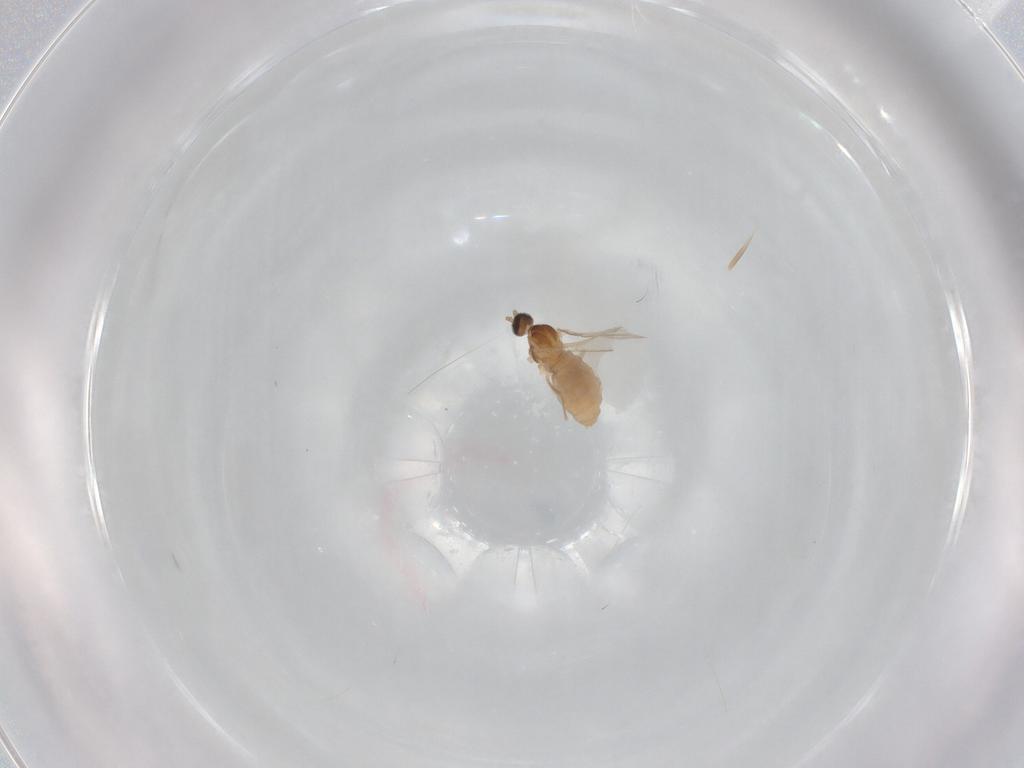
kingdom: Animalia
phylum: Arthropoda
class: Insecta
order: Diptera
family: Cecidomyiidae
